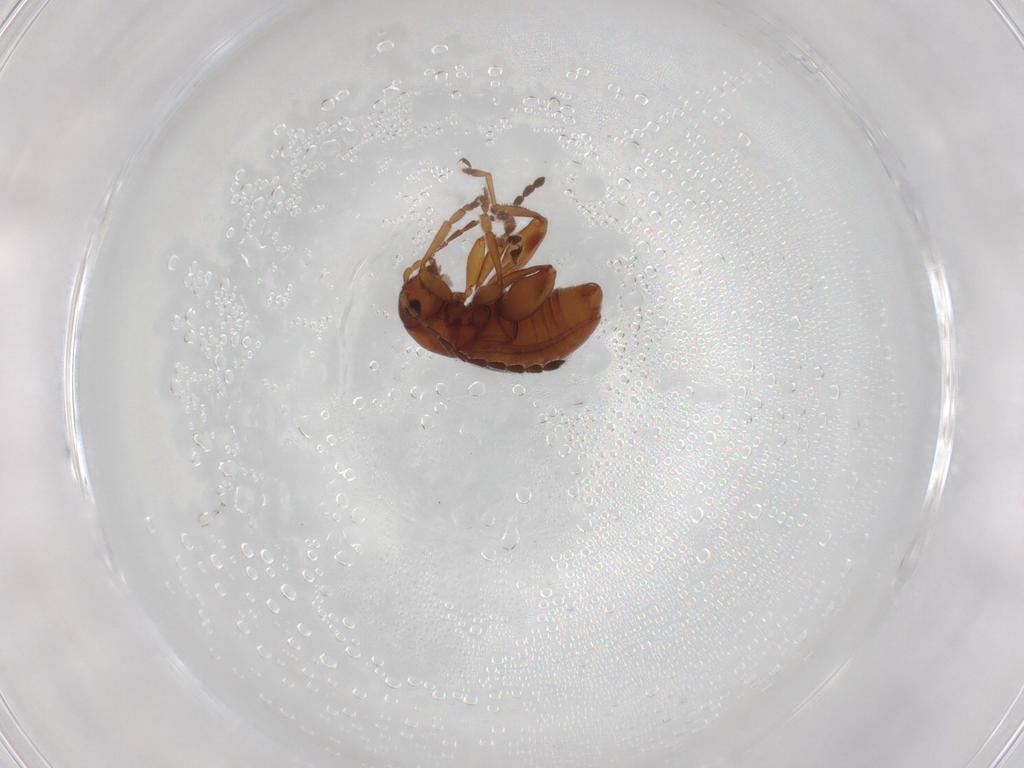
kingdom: Animalia
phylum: Arthropoda
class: Insecta
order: Coleoptera
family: Chrysomelidae
